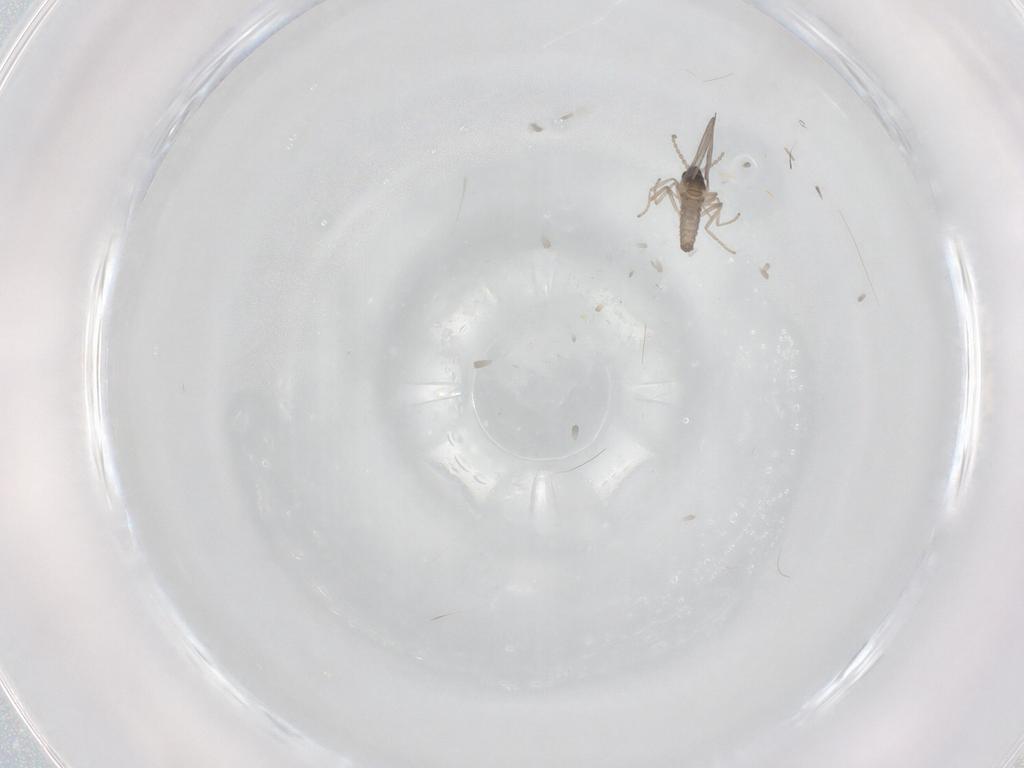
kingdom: Animalia
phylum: Arthropoda
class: Insecta
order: Diptera
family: Cecidomyiidae
